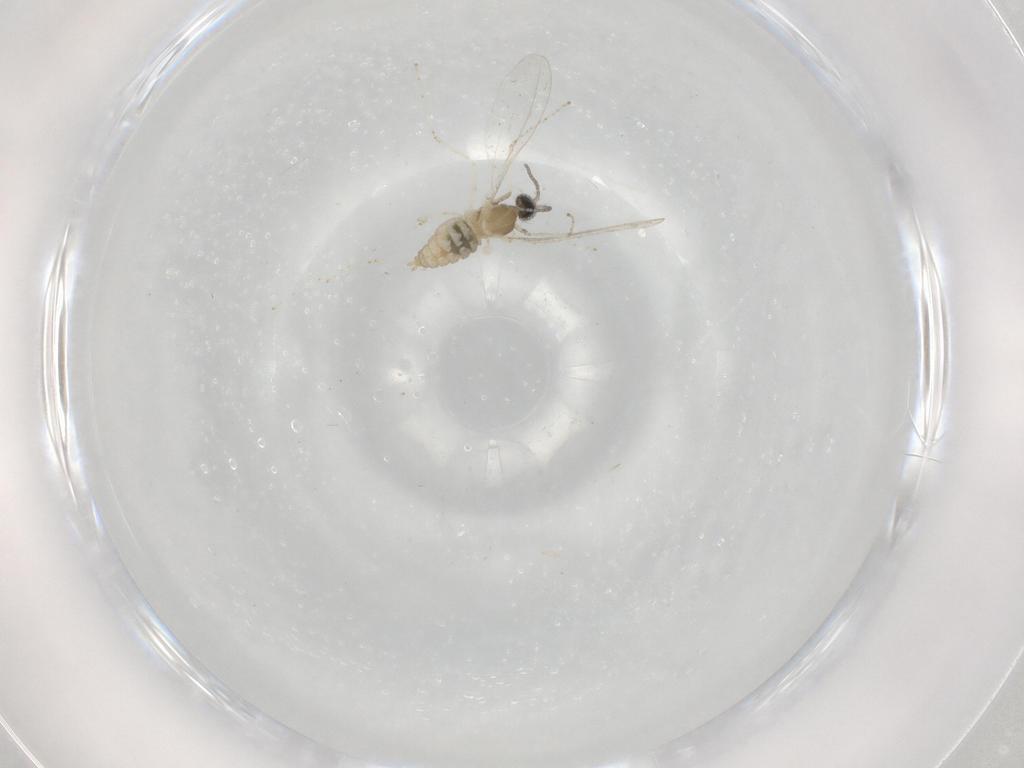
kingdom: Animalia
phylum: Arthropoda
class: Insecta
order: Diptera
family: Cecidomyiidae
